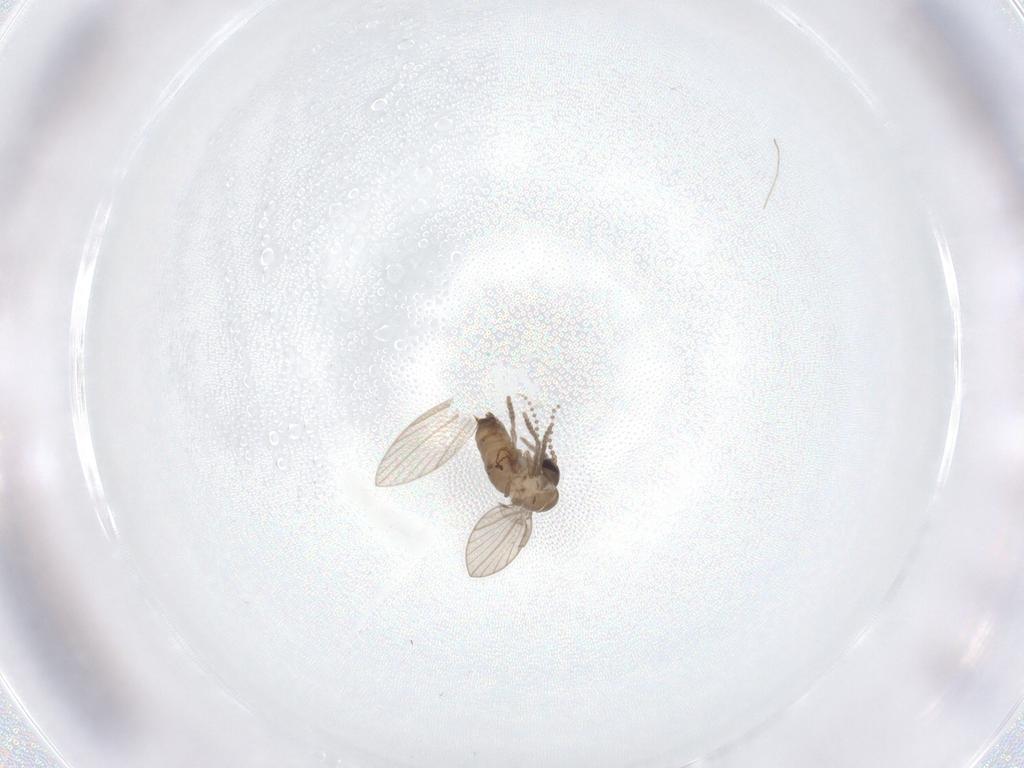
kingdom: Animalia
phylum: Arthropoda
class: Insecta
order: Diptera
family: Psychodidae
